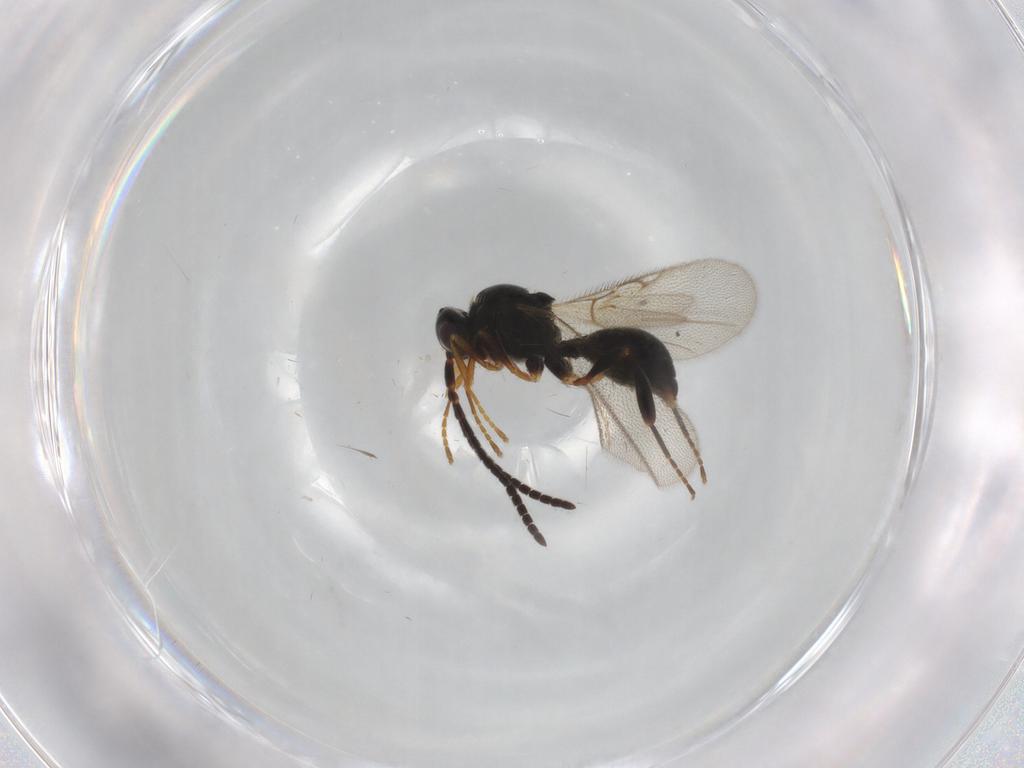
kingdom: Animalia
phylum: Arthropoda
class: Insecta
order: Hymenoptera
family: Diapriidae
